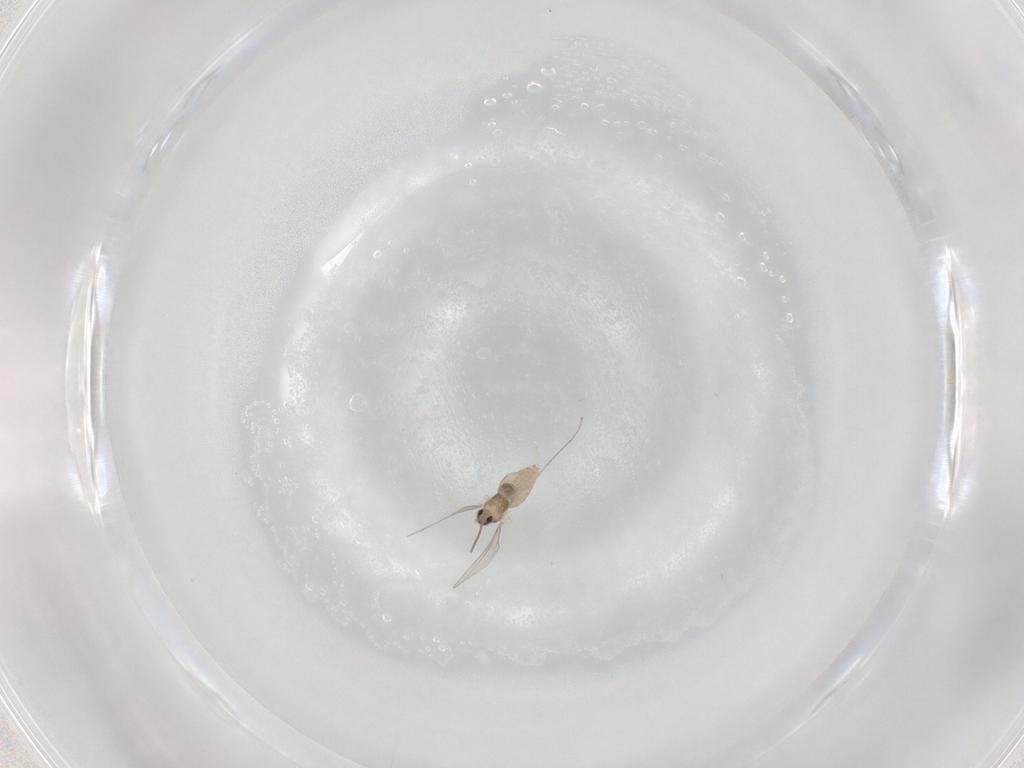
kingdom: Animalia
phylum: Arthropoda
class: Insecta
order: Diptera
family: Cecidomyiidae
